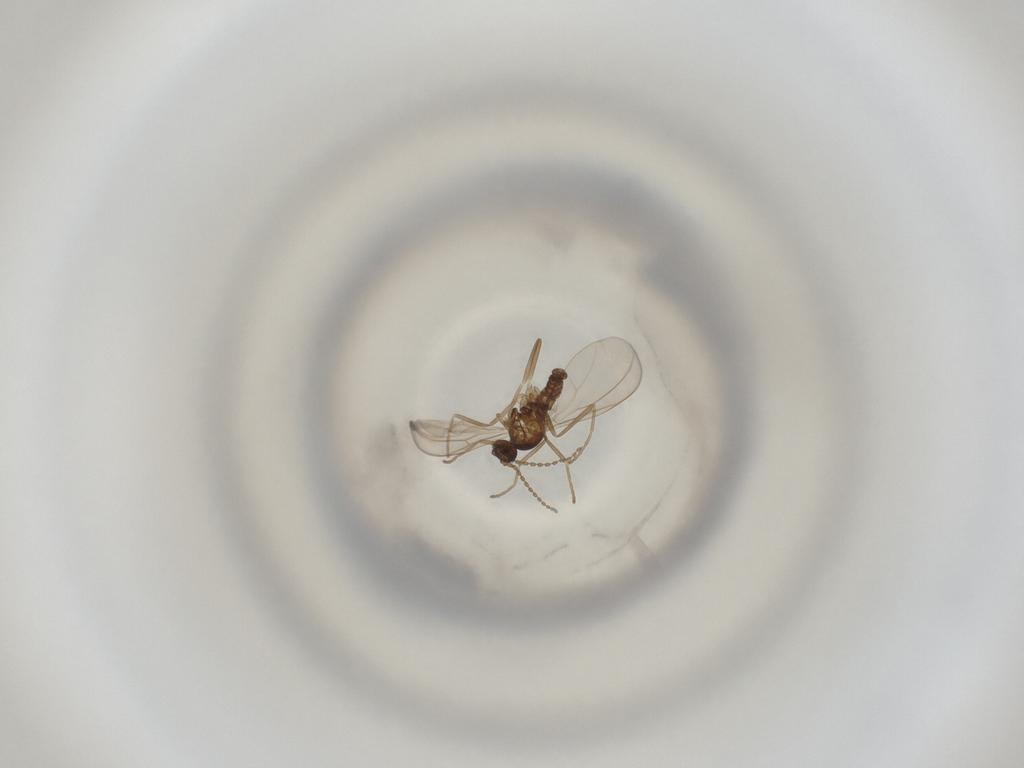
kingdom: Animalia
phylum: Arthropoda
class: Insecta
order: Diptera
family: Cecidomyiidae
